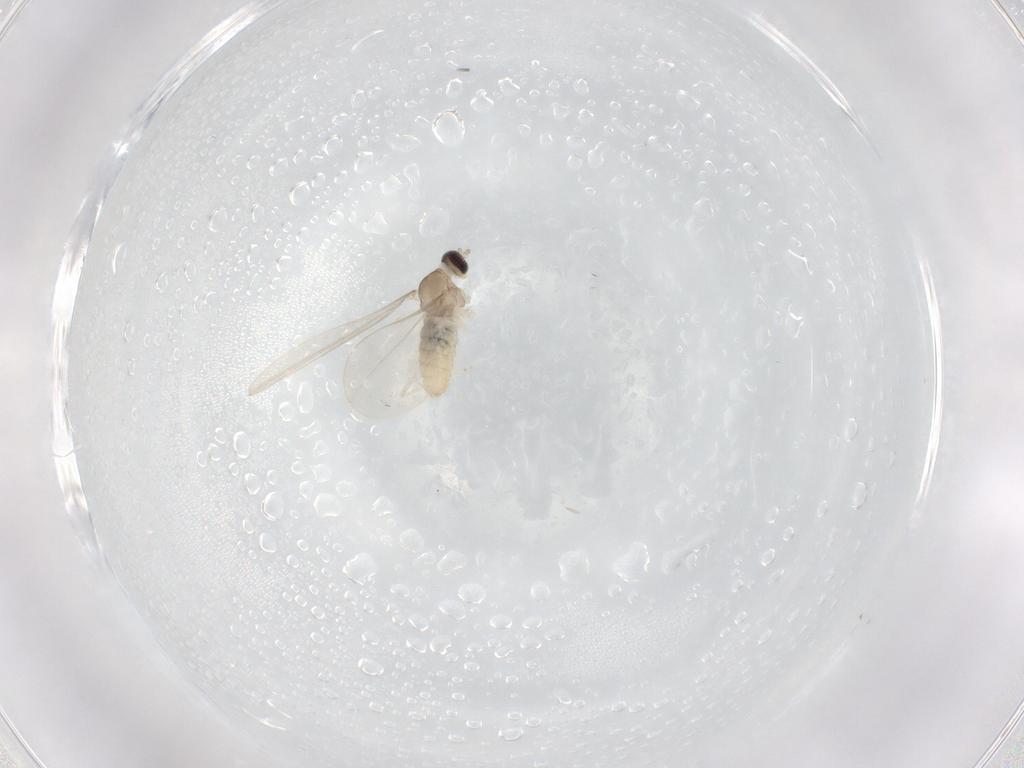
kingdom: Animalia
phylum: Arthropoda
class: Insecta
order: Diptera
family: Cecidomyiidae
